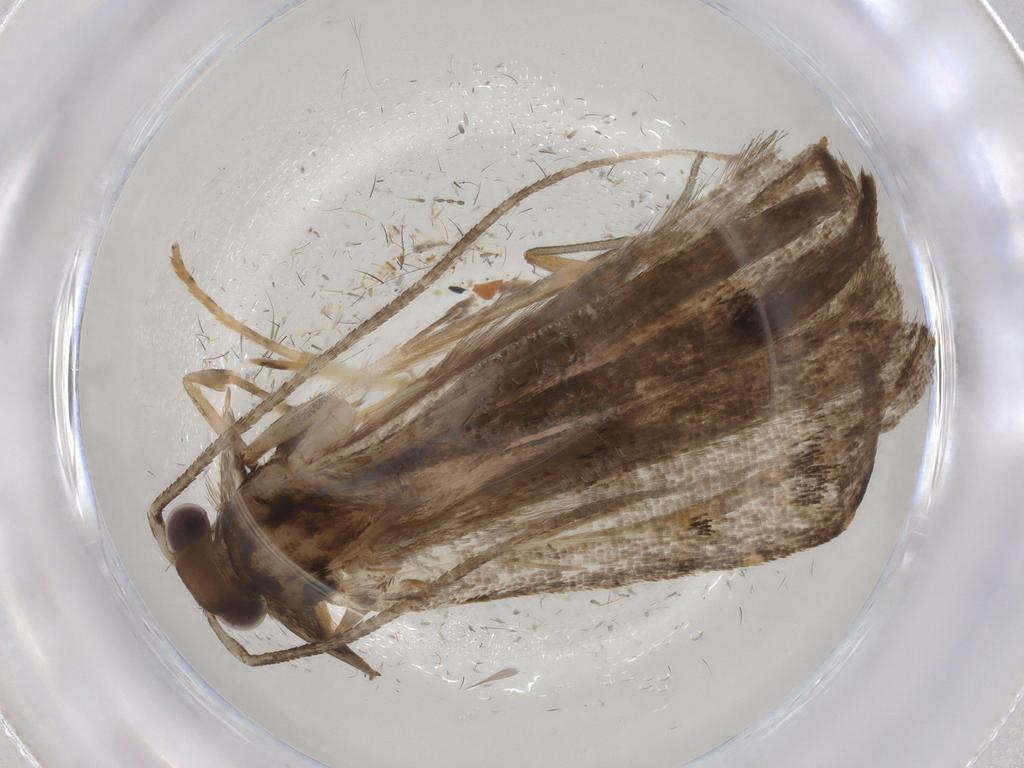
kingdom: Animalia
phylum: Arthropoda
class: Insecta
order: Lepidoptera
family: Cosmopterigidae
